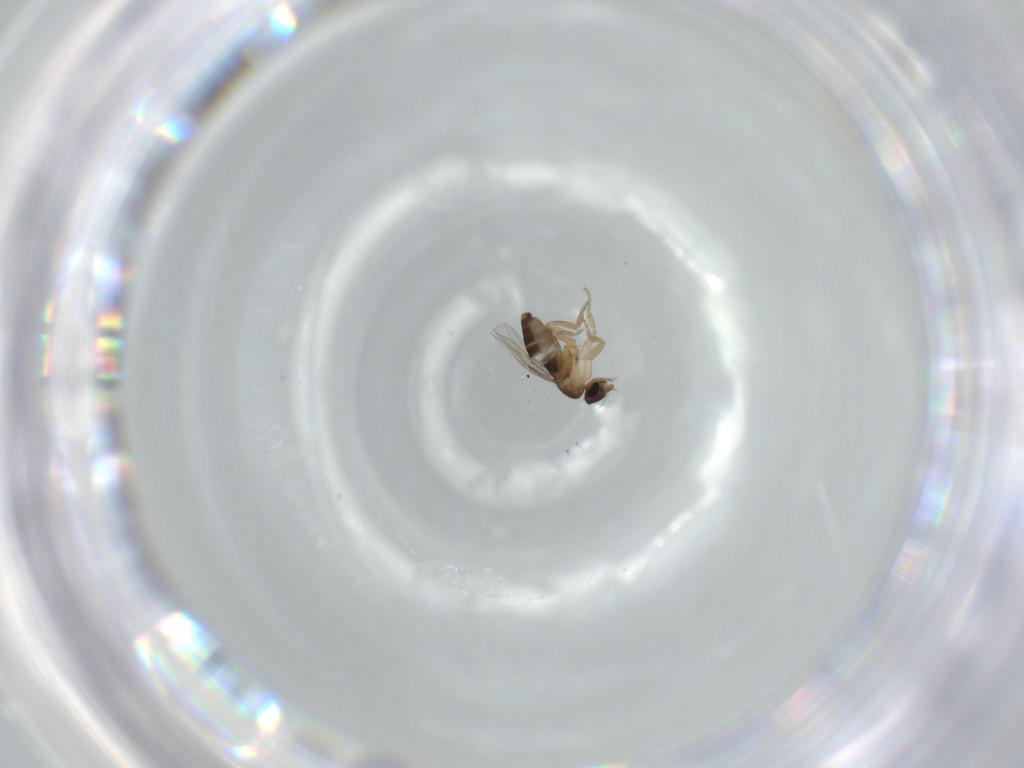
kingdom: Animalia
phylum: Arthropoda
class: Insecta
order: Diptera
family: Phoridae
